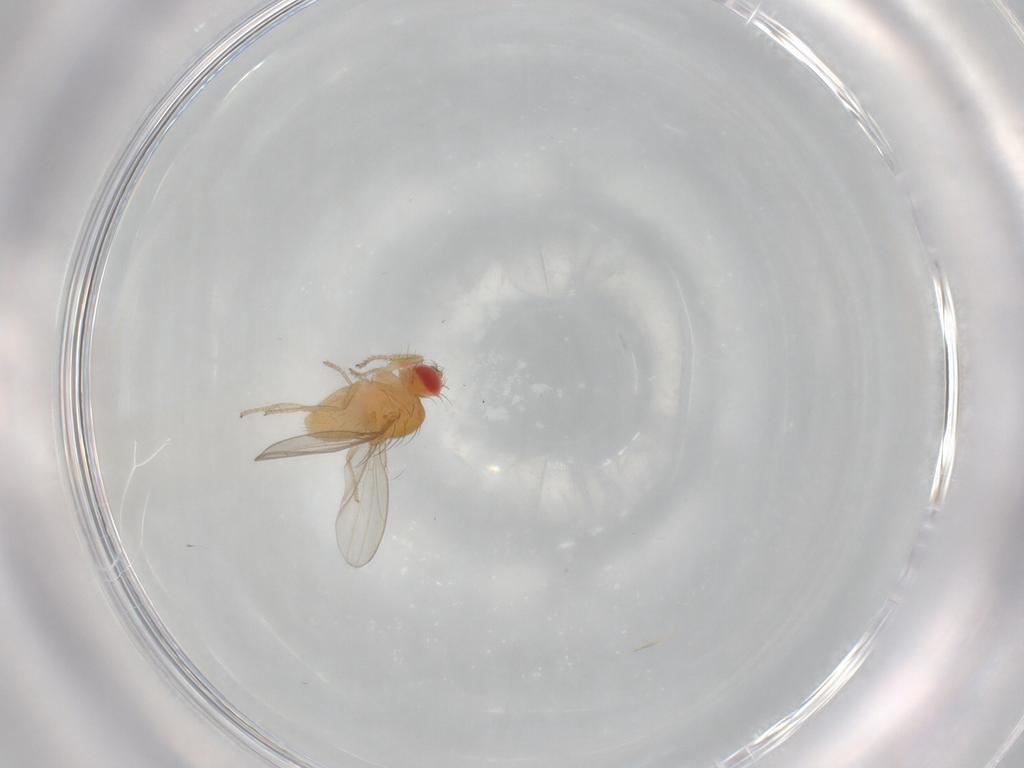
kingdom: Animalia
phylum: Arthropoda
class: Insecta
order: Diptera
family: Drosophilidae
